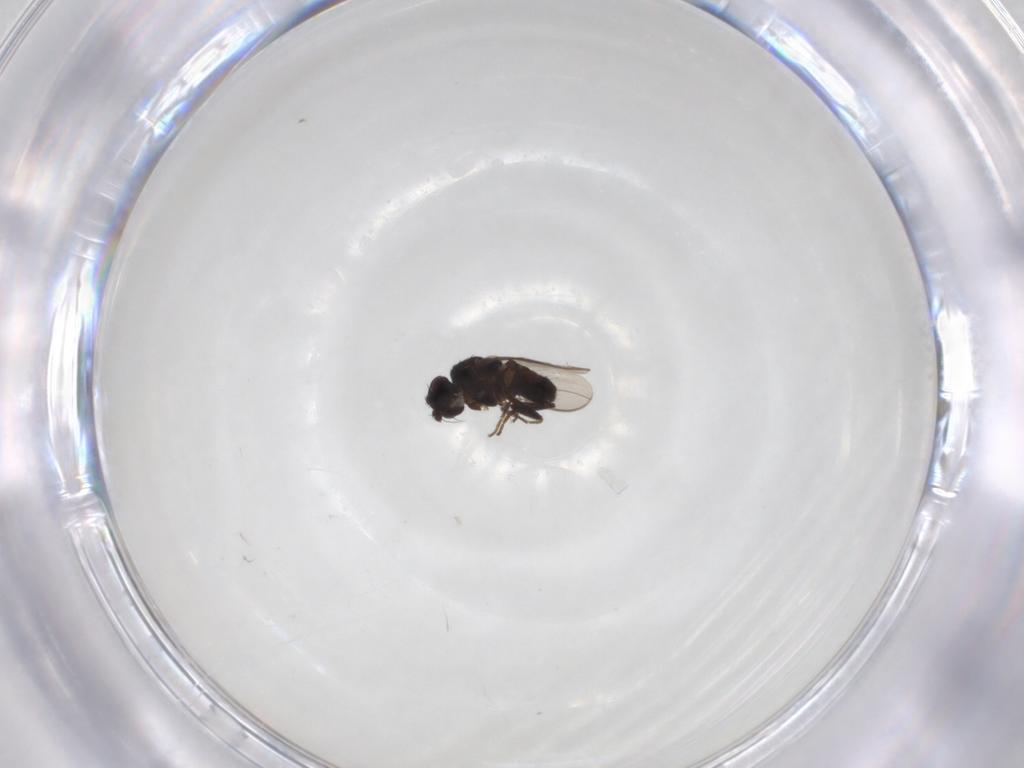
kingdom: Animalia
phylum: Arthropoda
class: Insecta
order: Diptera
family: Sphaeroceridae
